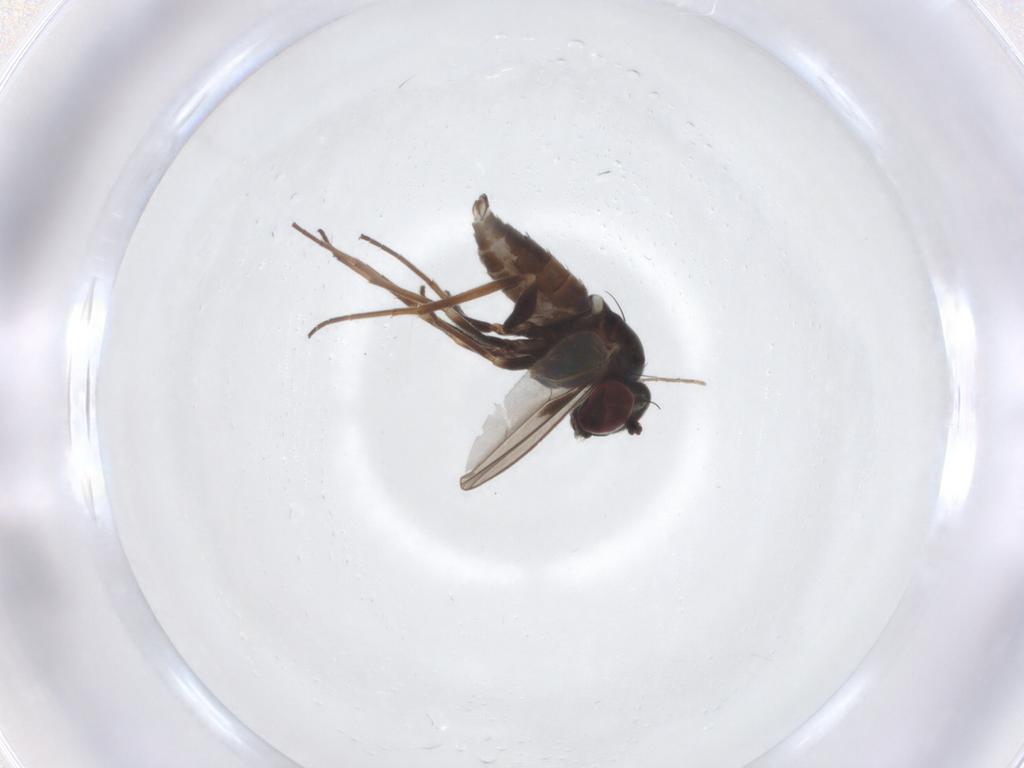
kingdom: Animalia
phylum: Arthropoda
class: Insecta
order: Diptera
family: Dolichopodidae
